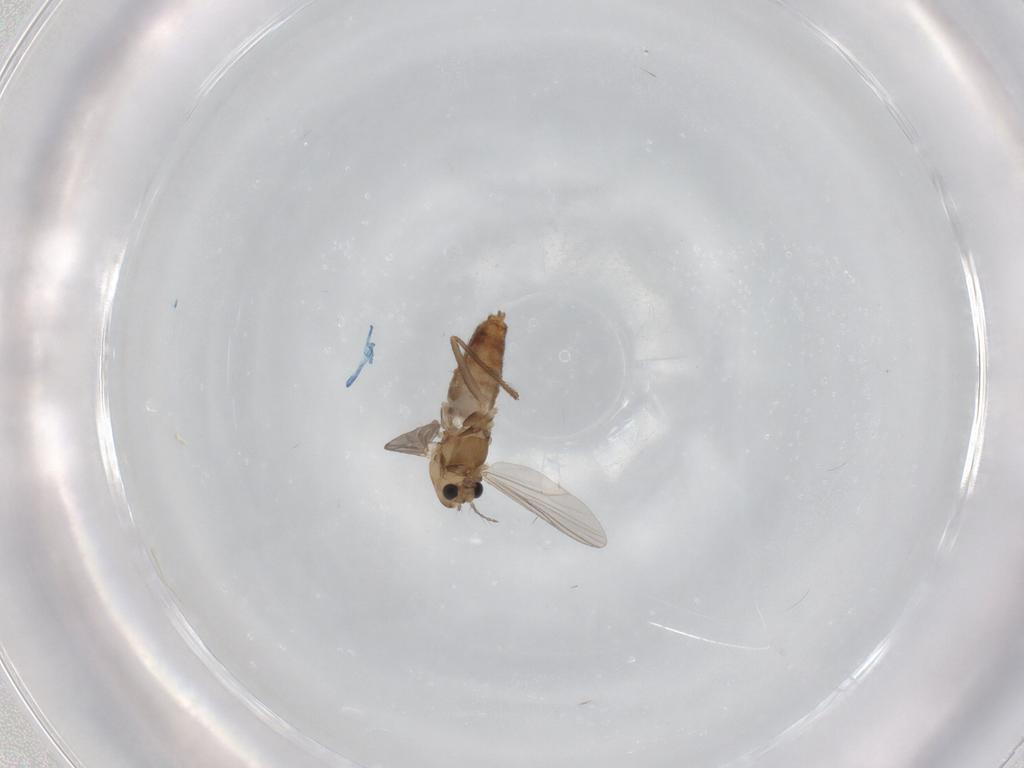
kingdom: Animalia
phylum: Arthropoda
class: Insecta
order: Diptera
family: Chironomidae
